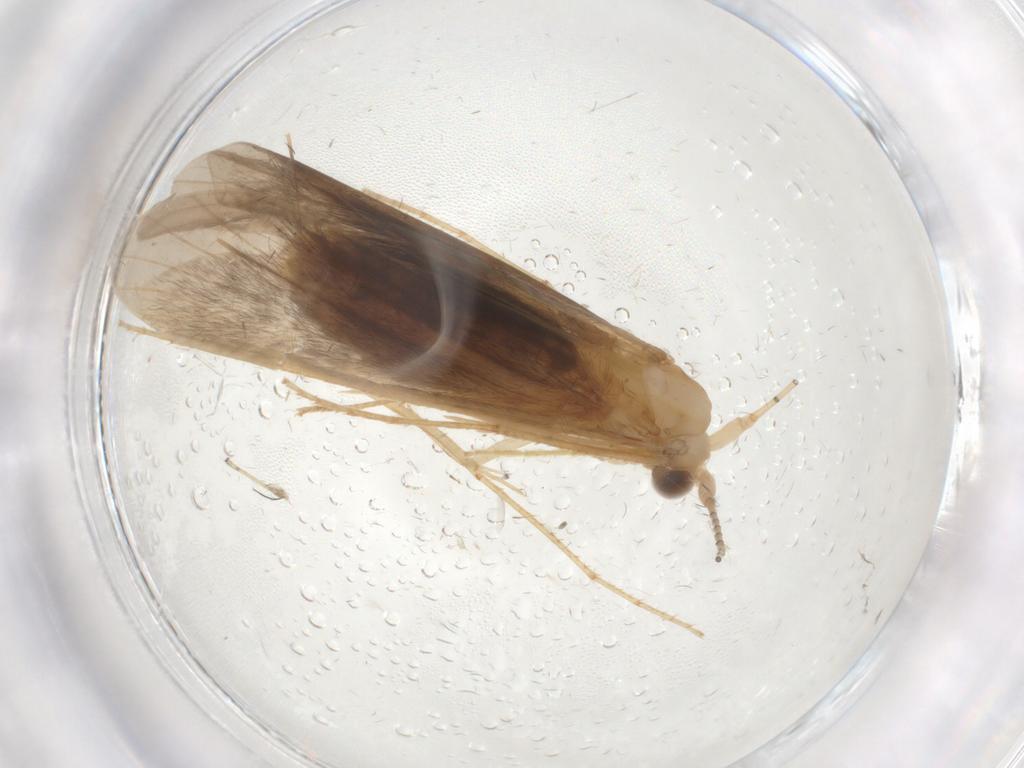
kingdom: Animalia
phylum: Arthropoda
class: Insecta
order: Trichoptera
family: Leptoceridae
